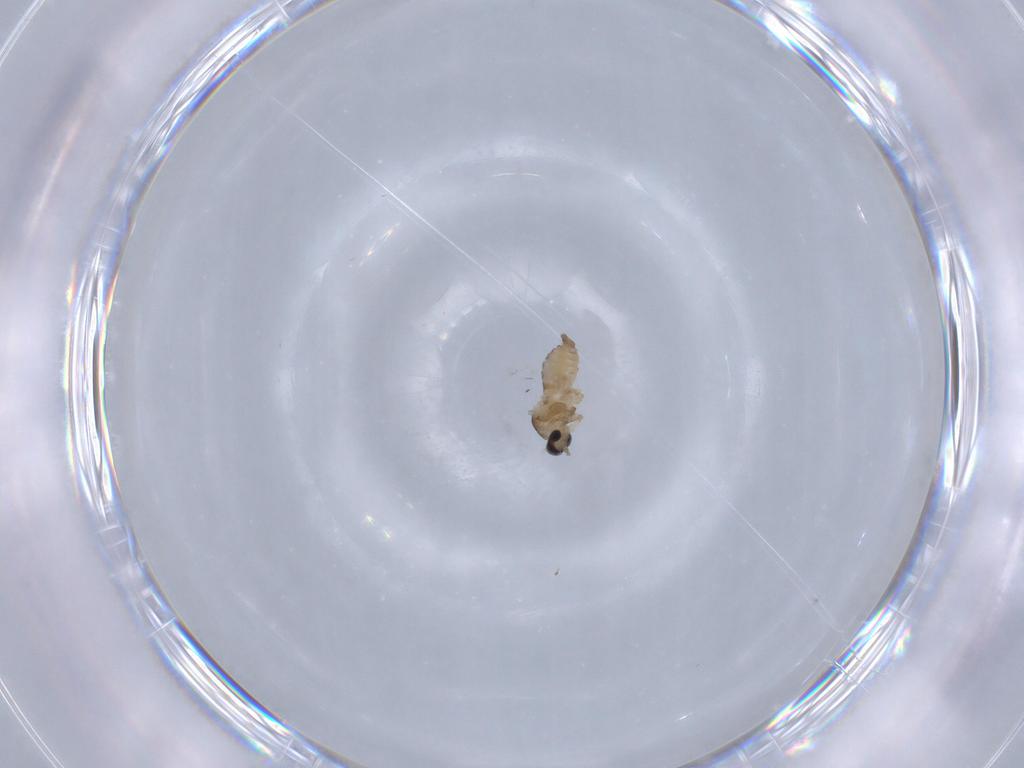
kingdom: Animalia
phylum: Arthropoda
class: Insecta
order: Diptera
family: Cecidomyiidae
